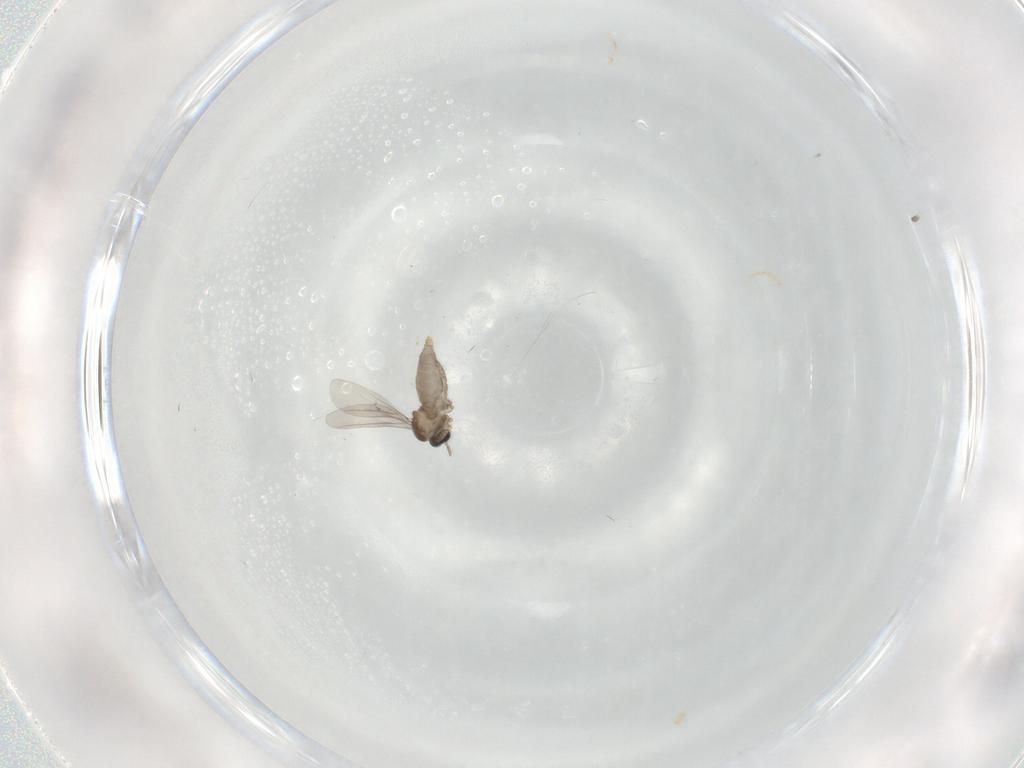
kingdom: Animalia
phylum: Arthropoda
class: Insecta
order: Diptera
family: Cecidomyiidae
